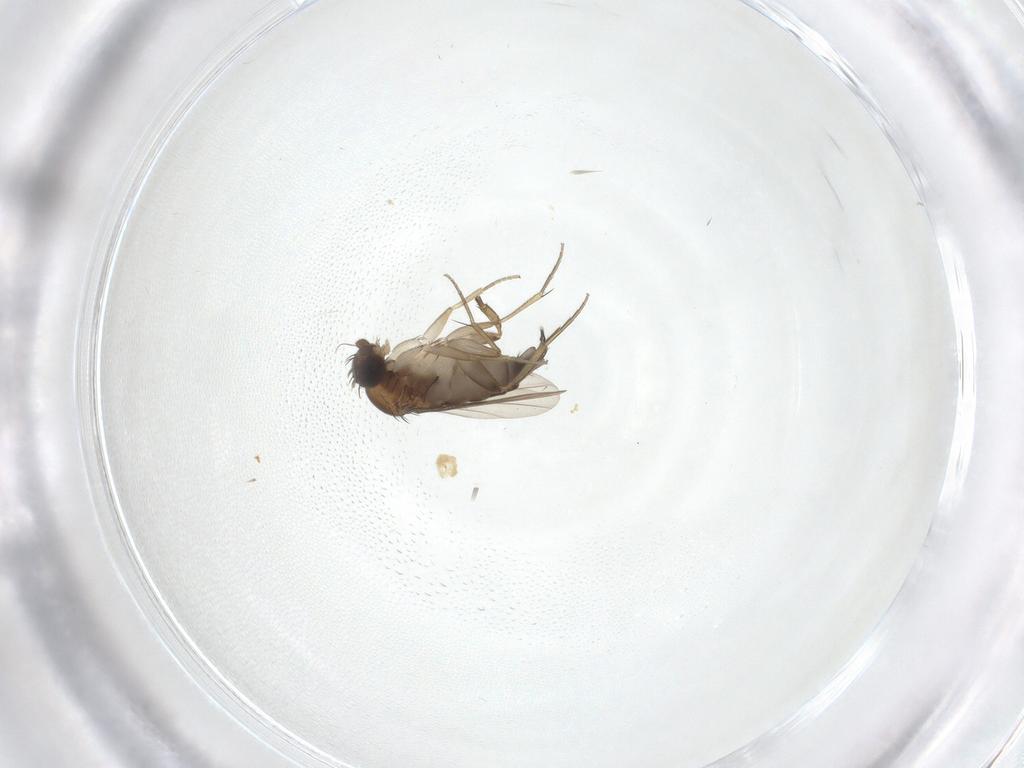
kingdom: Animalia
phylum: Arthropoda
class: Insecta
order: Diptera
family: Phoridae
